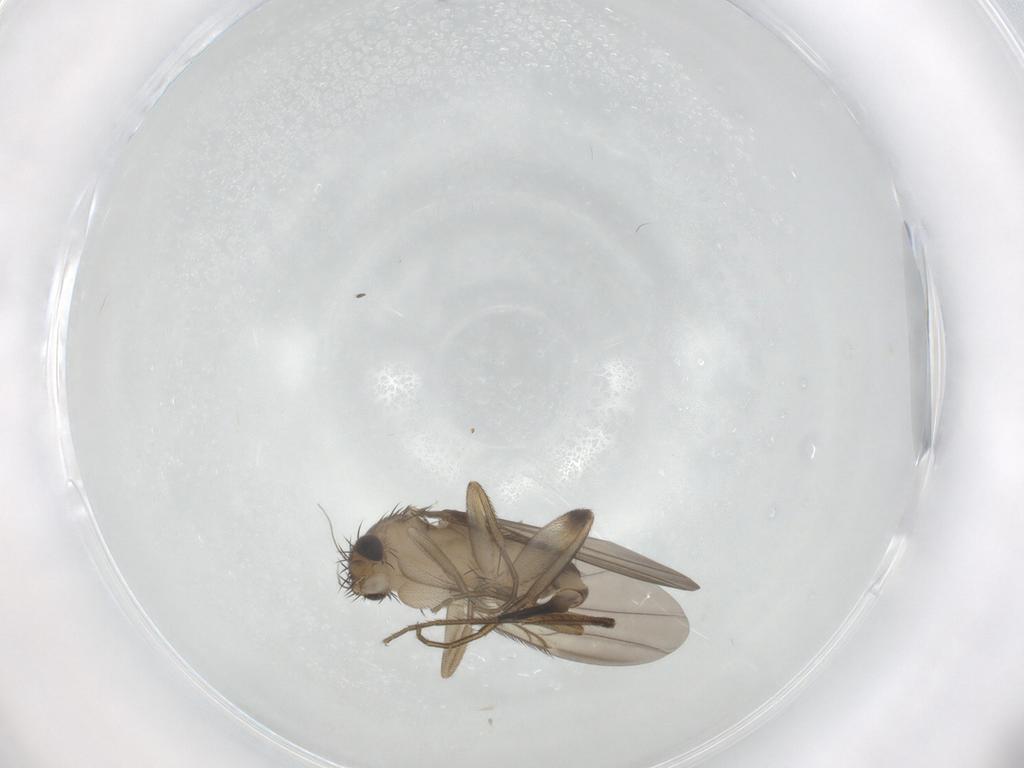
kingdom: Animalia
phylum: Arthropoda
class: Insecta
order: Diptera
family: Phoridae
